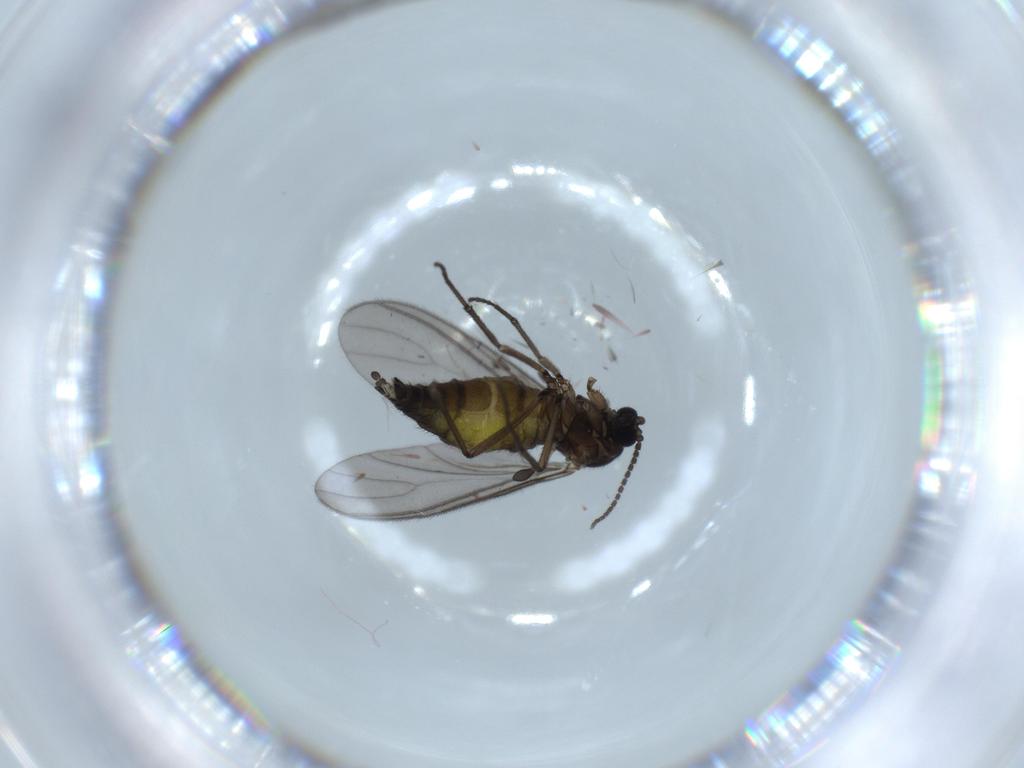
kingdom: Animalia
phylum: Arthropoda
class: Insecta
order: Diptera
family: Sciaridae
